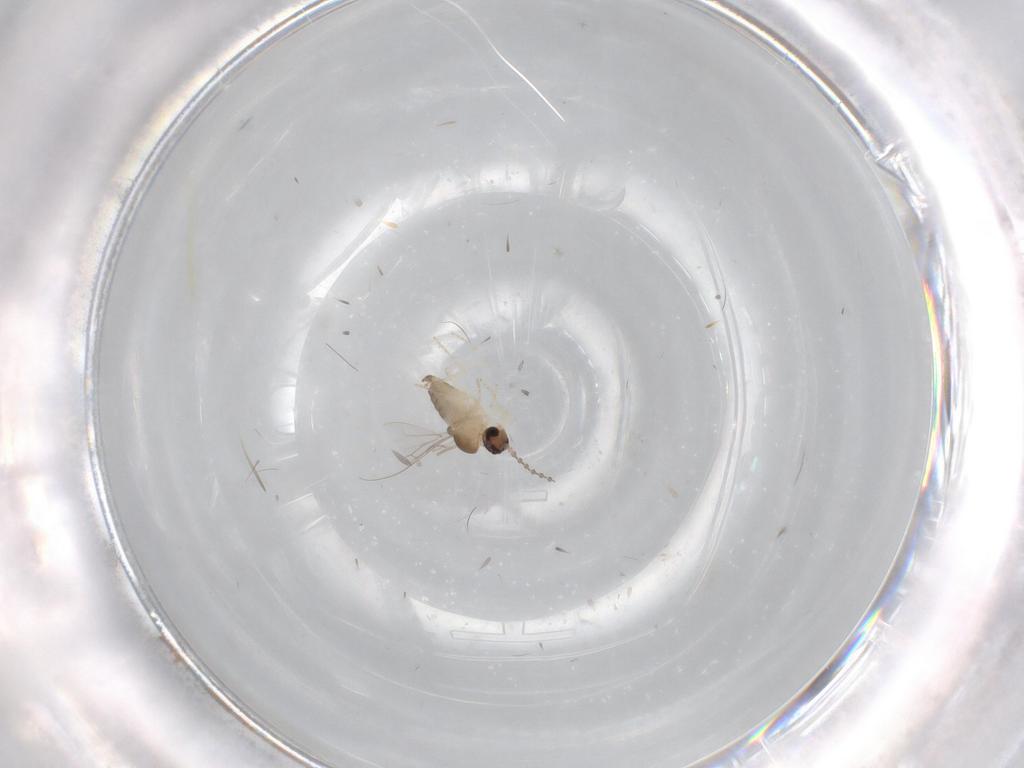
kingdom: Animalia
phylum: Arthropoda
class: Insecta
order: Diptera
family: Cecidomyiidae
